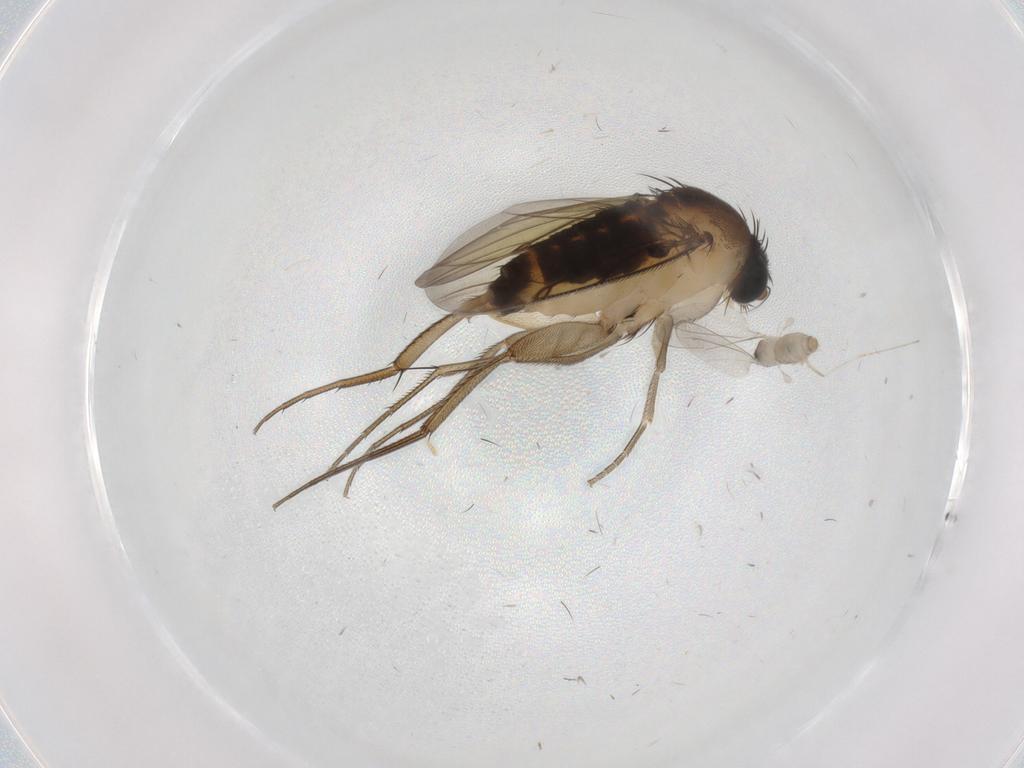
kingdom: Animalia
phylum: Arthropoda
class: Insecta
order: Diptera
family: Cecidomyiidae
